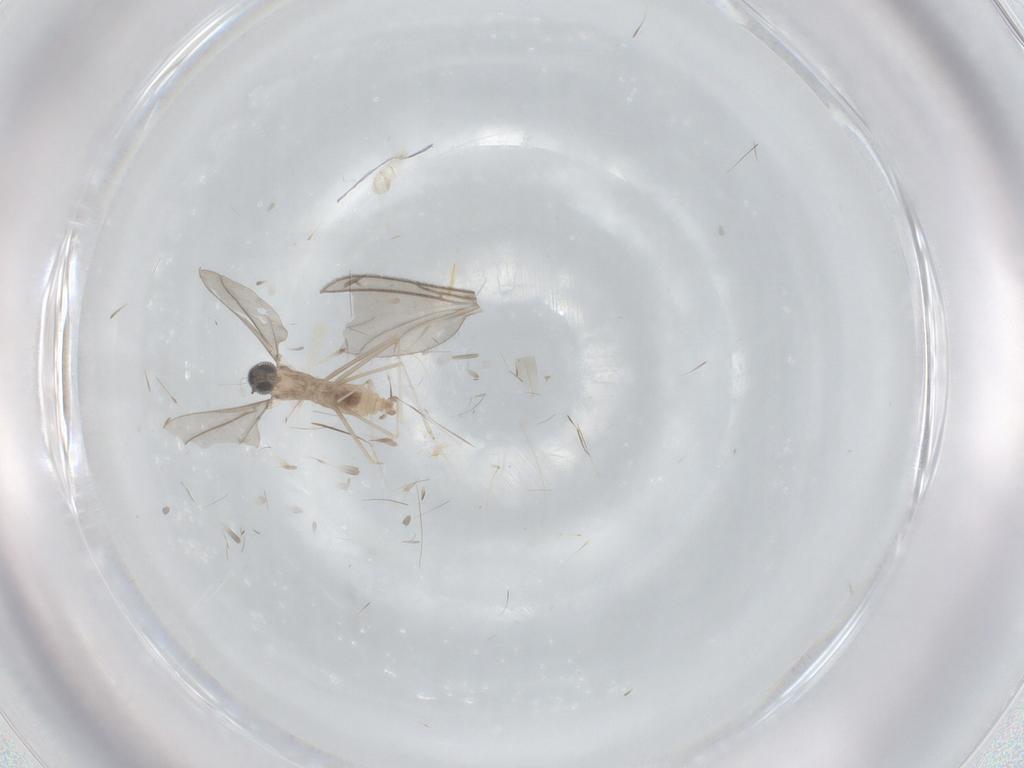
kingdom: Animalia
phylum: Arthropoda
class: Insecta
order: Diptera
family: Sciaridae
